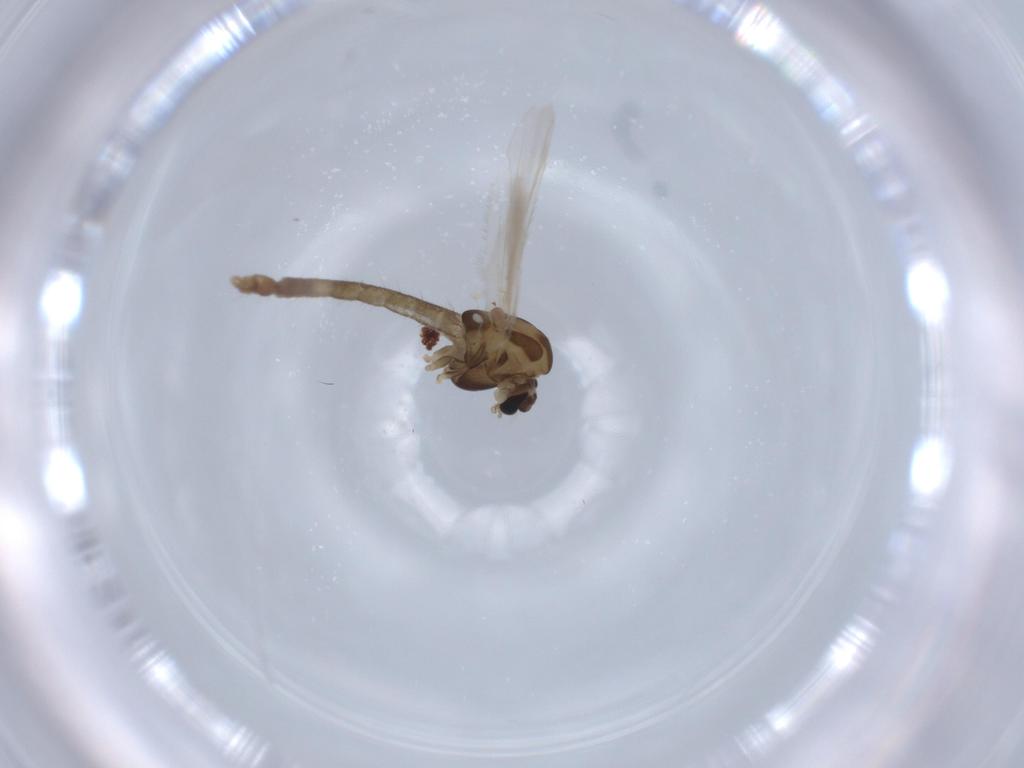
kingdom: Animalia
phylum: Arthropoda
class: Insecta
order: Diptera
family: Chironomidae
